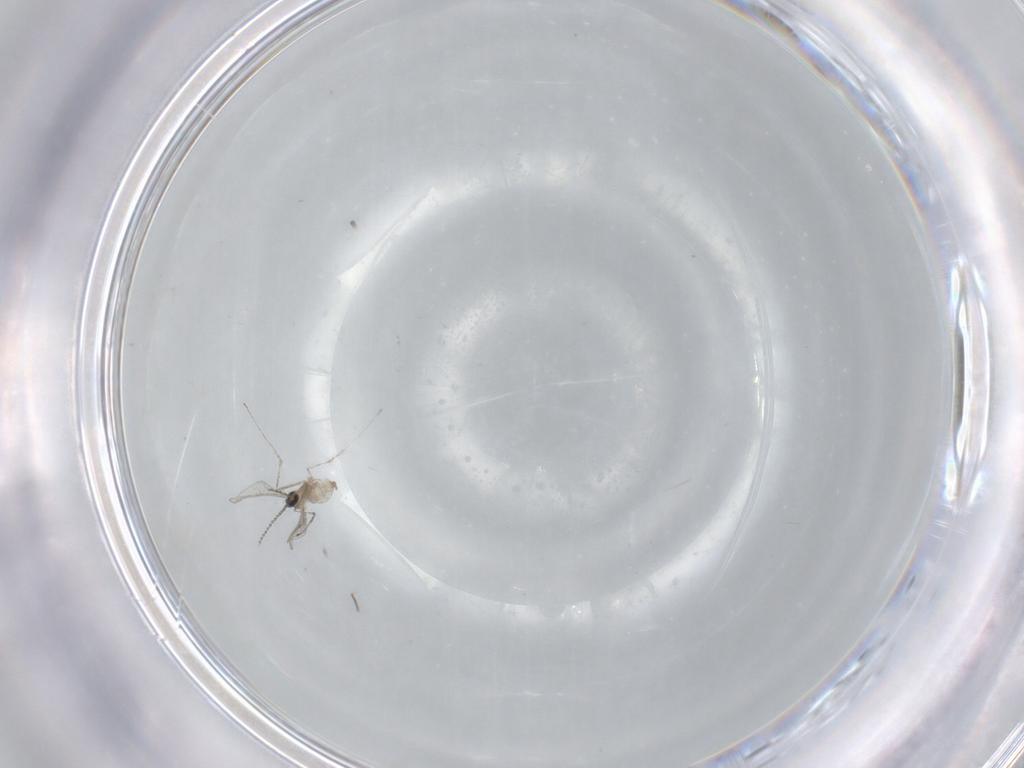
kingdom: Animalia
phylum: Arthropoda
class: Insecta
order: Diptera
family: Cecidomyiidae
